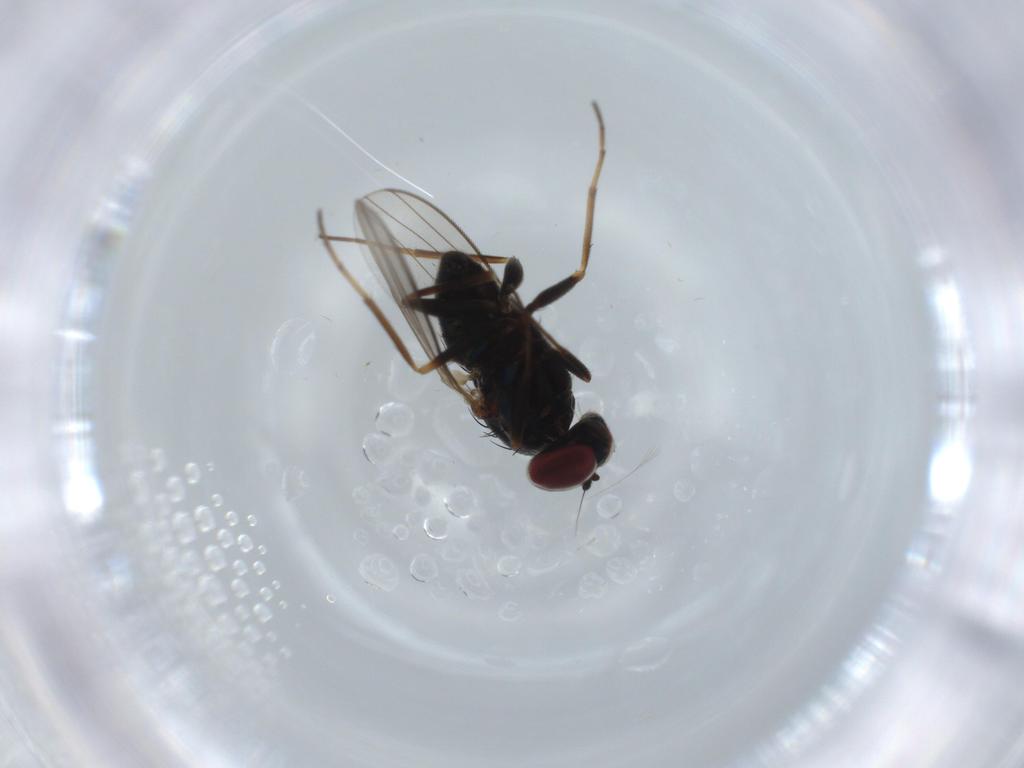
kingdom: Animalia
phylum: Arthropoda
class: Insecta
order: Diptera
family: Dolichopodidae
